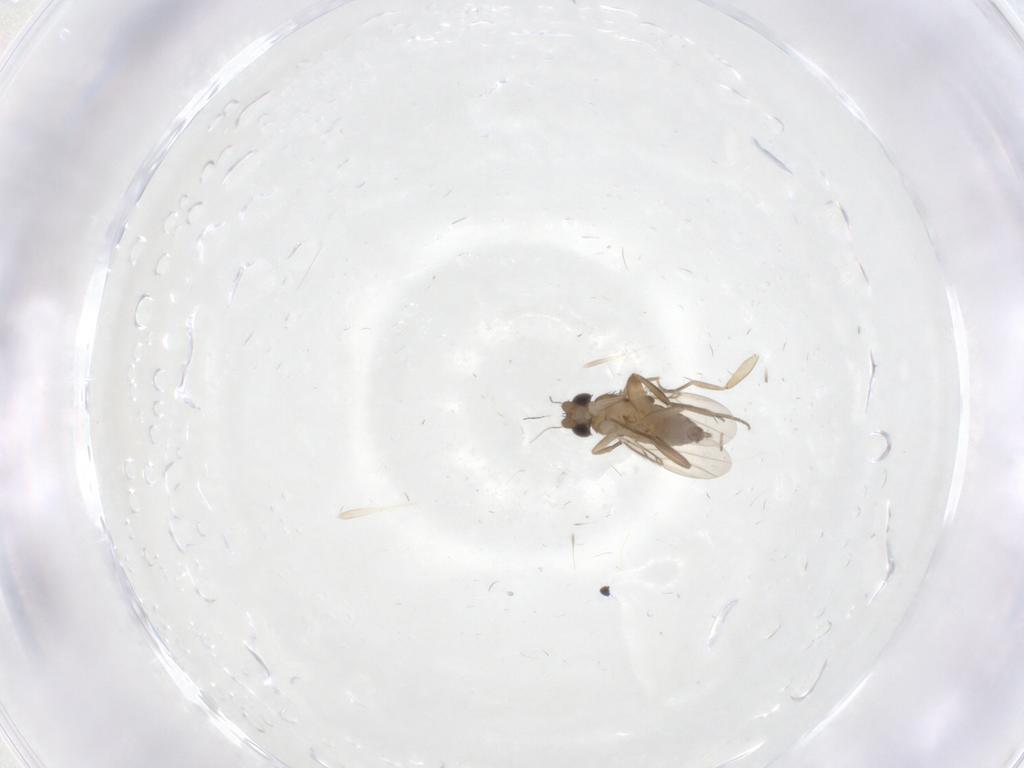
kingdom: Animalia
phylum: Arthropoda
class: Insecta
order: Diptera
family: Phoridae
